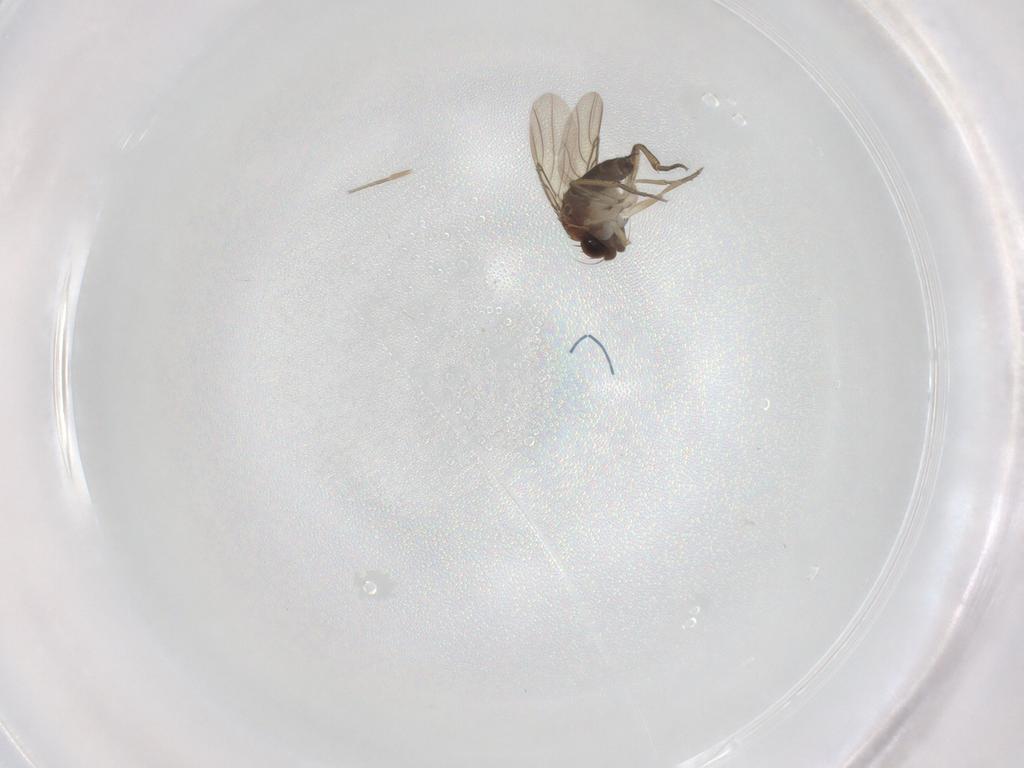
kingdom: Animalia
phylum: Arthropoda
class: Insecta
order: Diptera
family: Phoridae
